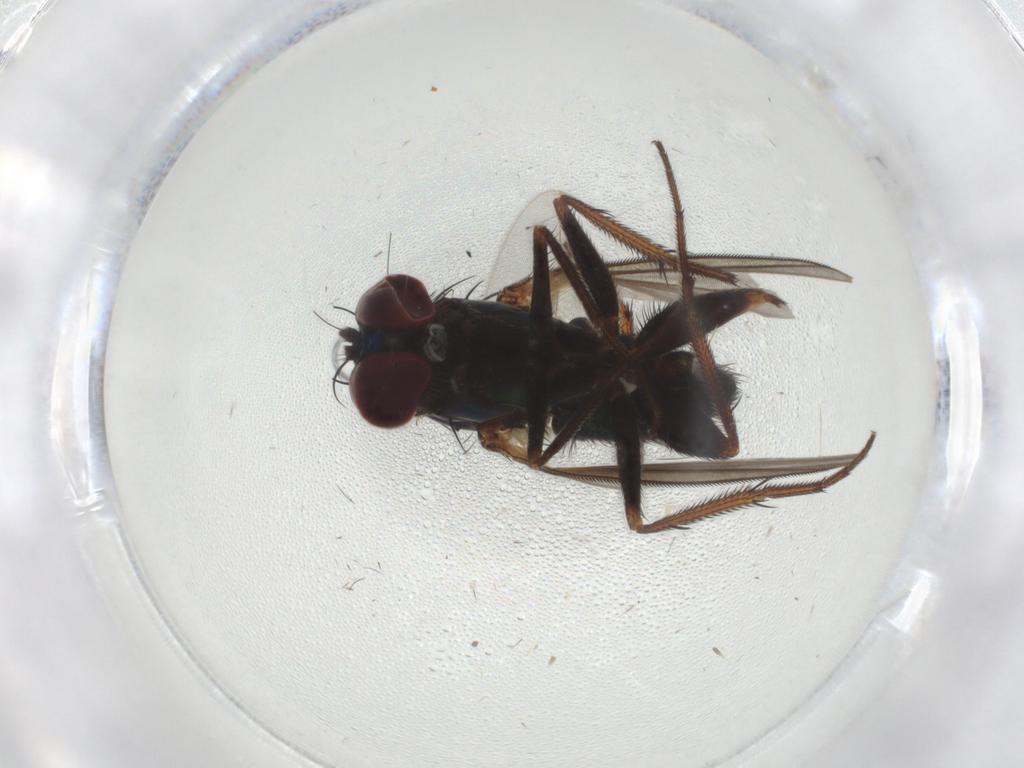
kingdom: Animalia
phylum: Arthropoda
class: Insecta
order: Diptera
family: Dolichopodidae
